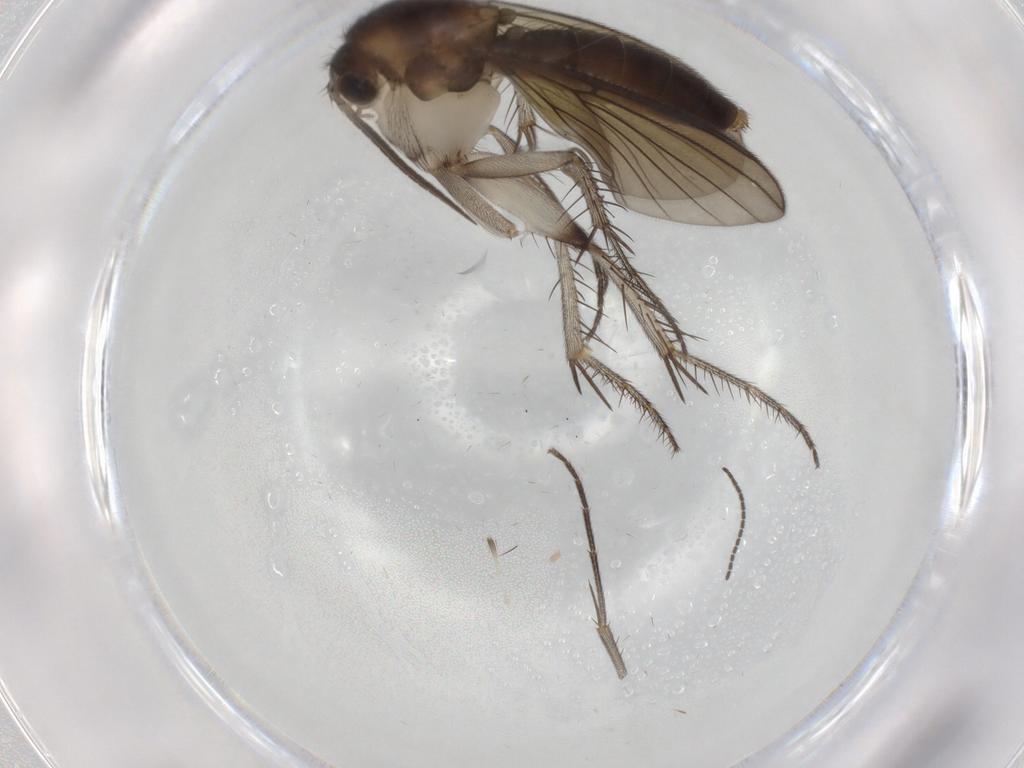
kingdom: Animalia
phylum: Arthropoda
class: Insecta
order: Diptera
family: Mycetophilidae
